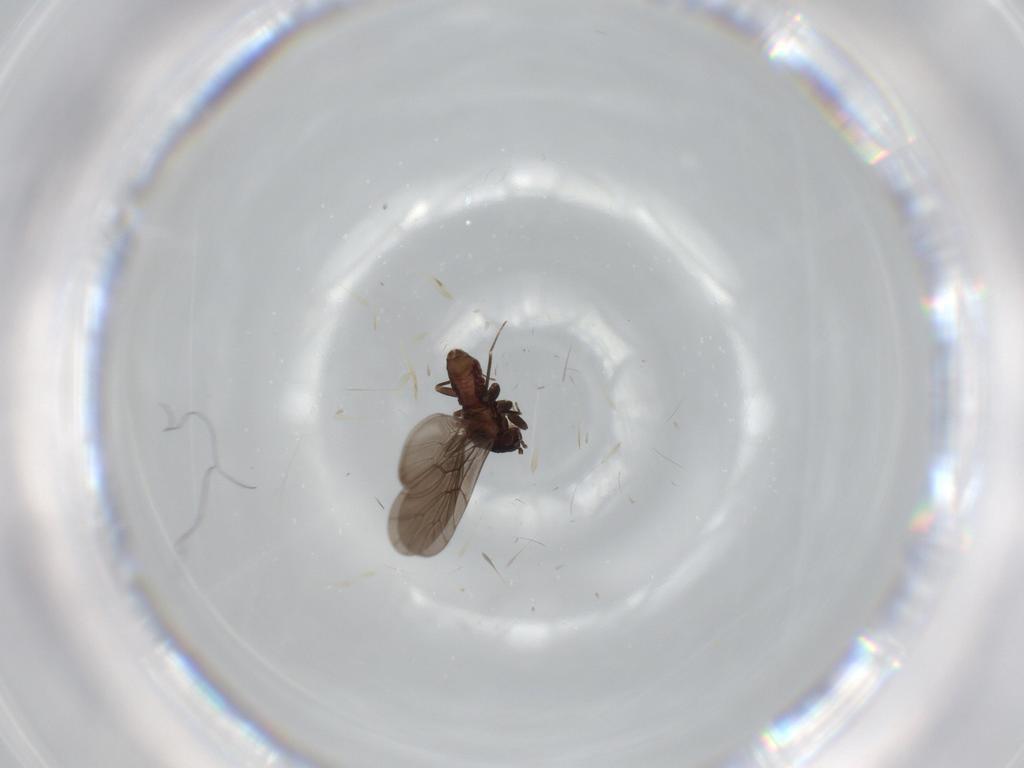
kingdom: Animalia
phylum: Arthropoda
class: Insecta
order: Psocodea
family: Lepidopsocidae
